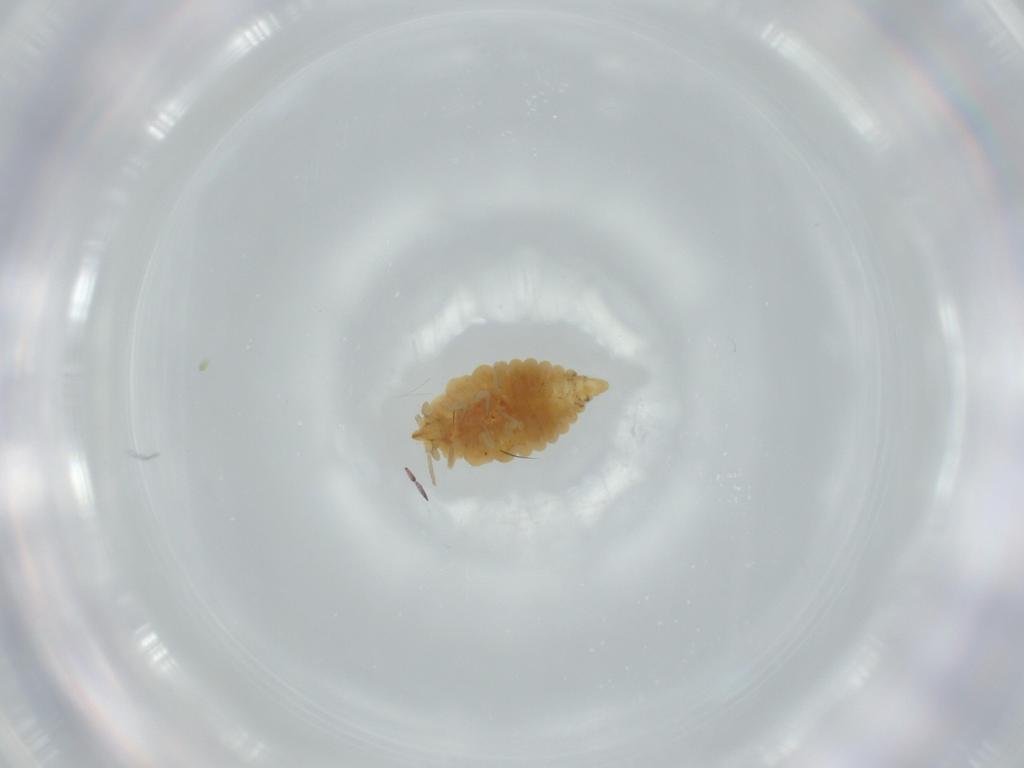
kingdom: Animalia
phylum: Arthropoda
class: Insecta
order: Neuroptera
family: Coniopterygidae
